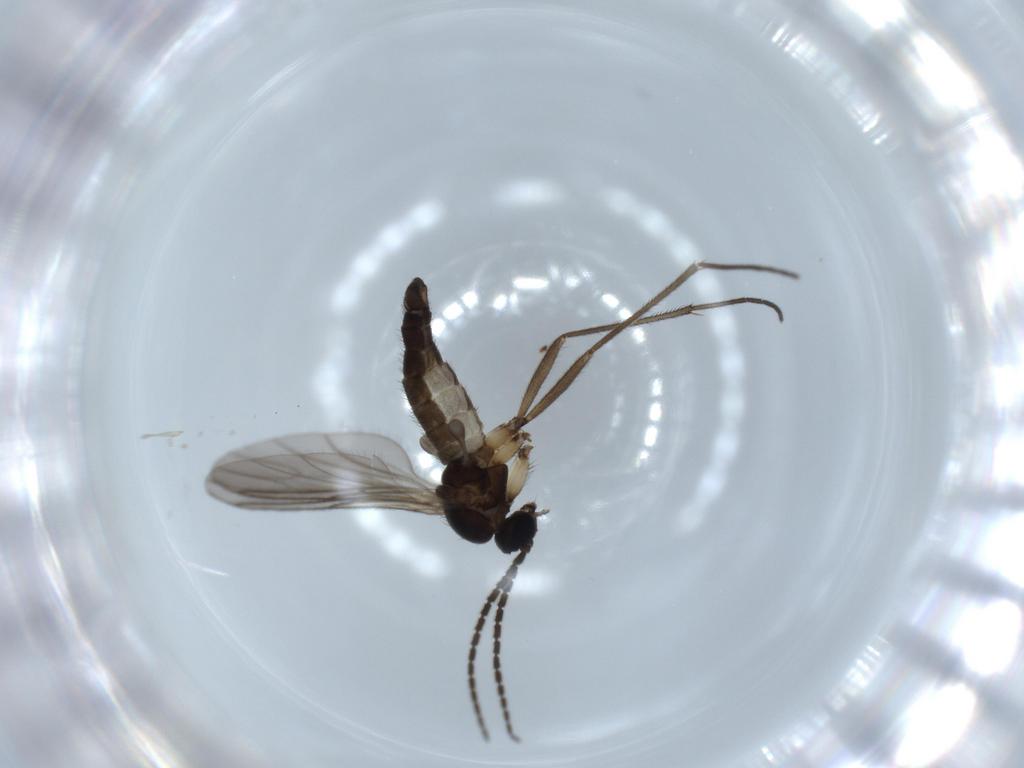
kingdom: Animalia
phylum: Arthropoda
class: Insecta
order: Diptera
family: Sciaridae
